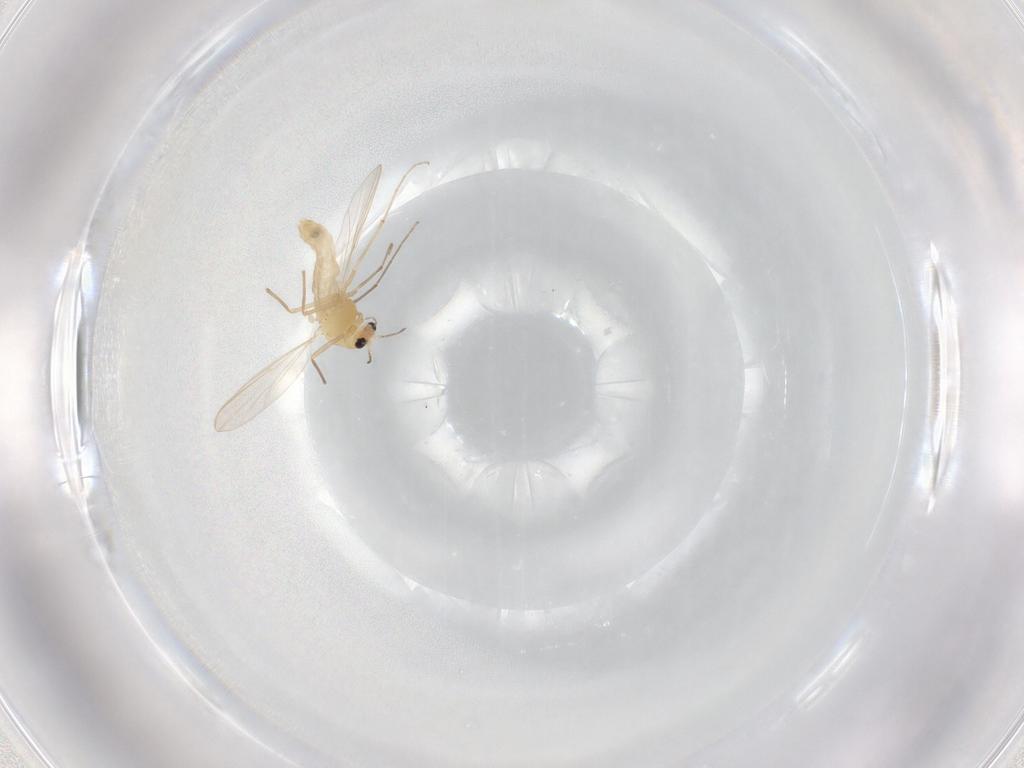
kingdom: Animalia
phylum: Arthropoda
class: Insecta
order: Diptera
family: Chironomidae
